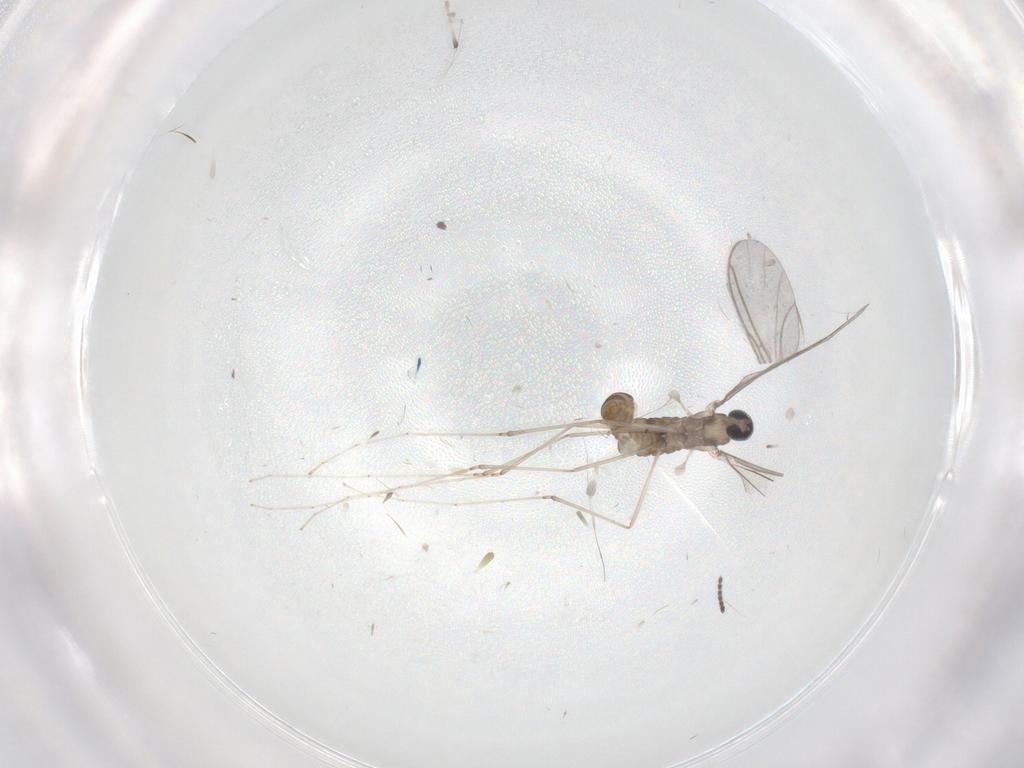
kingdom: Animalia
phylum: Arthropoda
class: Insecta
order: Diptera
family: Cecidomyiidae
